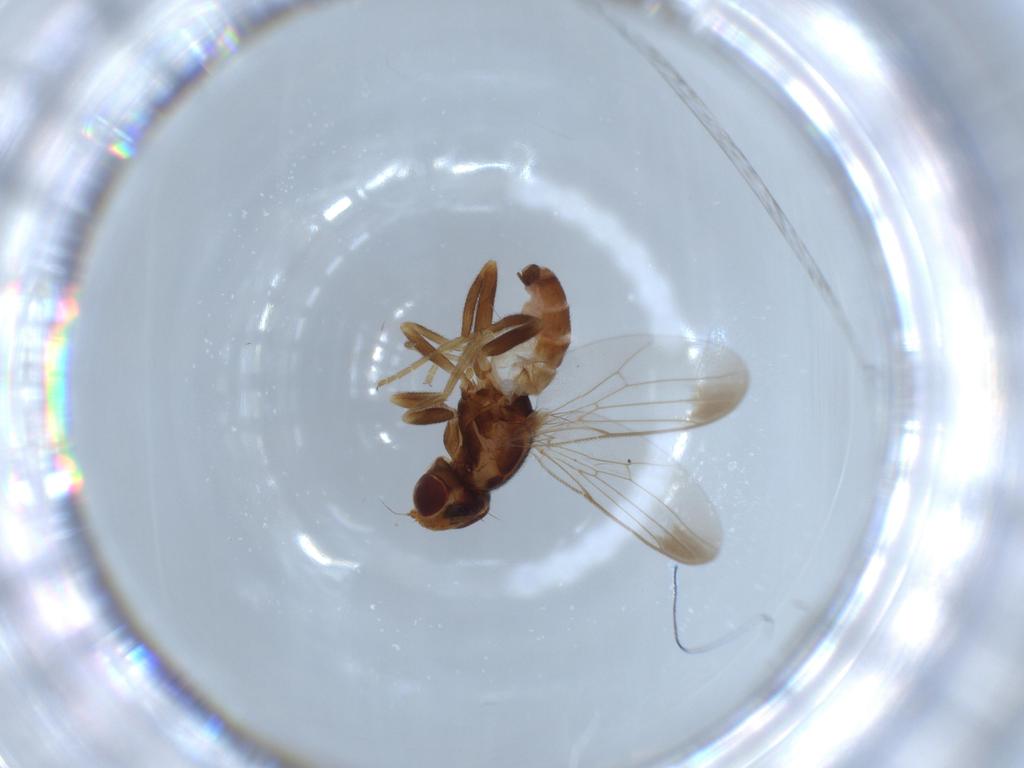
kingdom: Animalia
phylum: Arthropoda
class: Insecta
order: Diptera
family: Chloropidae
